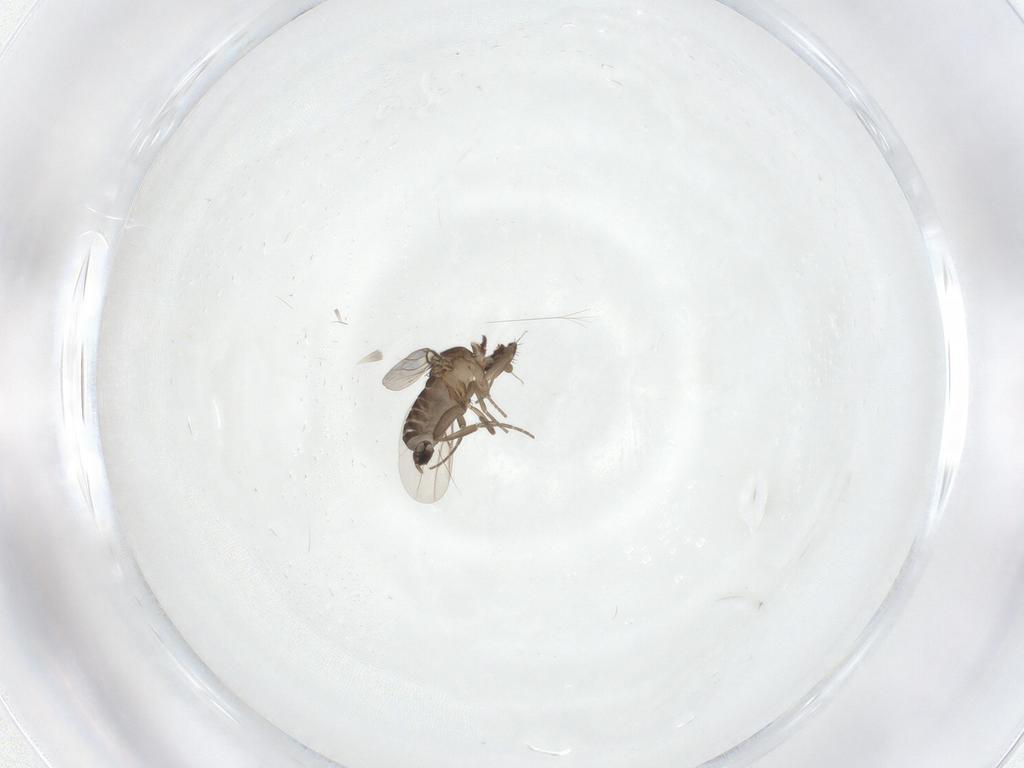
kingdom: Animalia
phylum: Arthropoda
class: Insecta
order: Diptera
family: Phoridae
